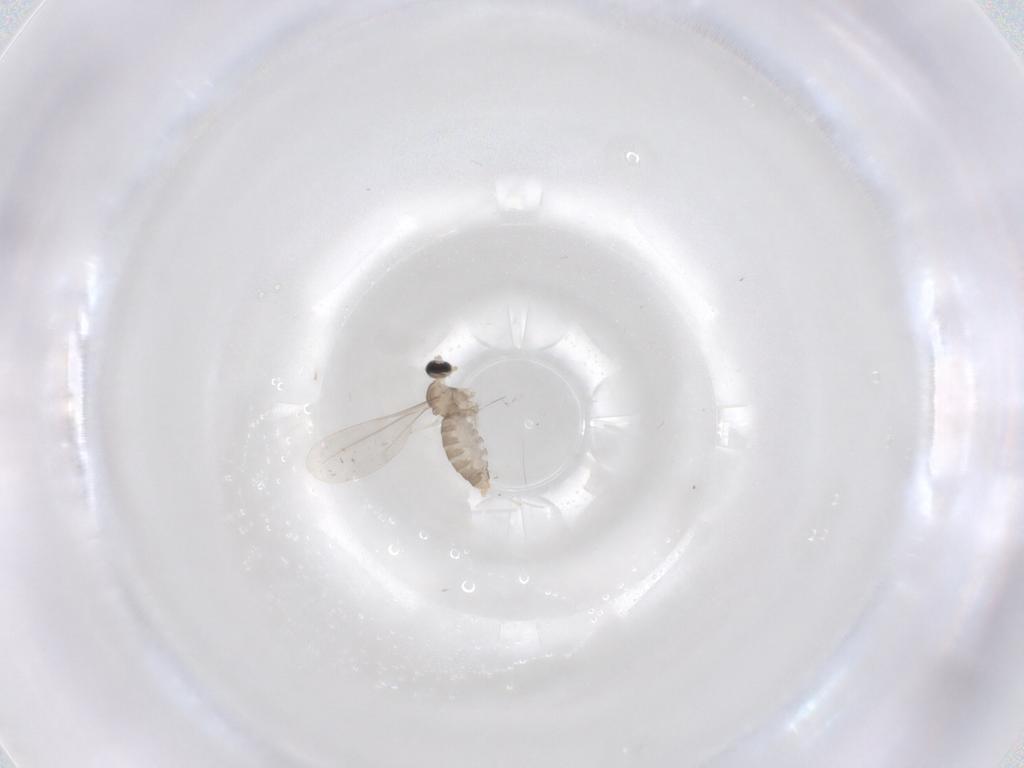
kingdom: Animalia
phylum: Arthropoda
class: Insecta
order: Diptera
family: Cecidomyiidae
